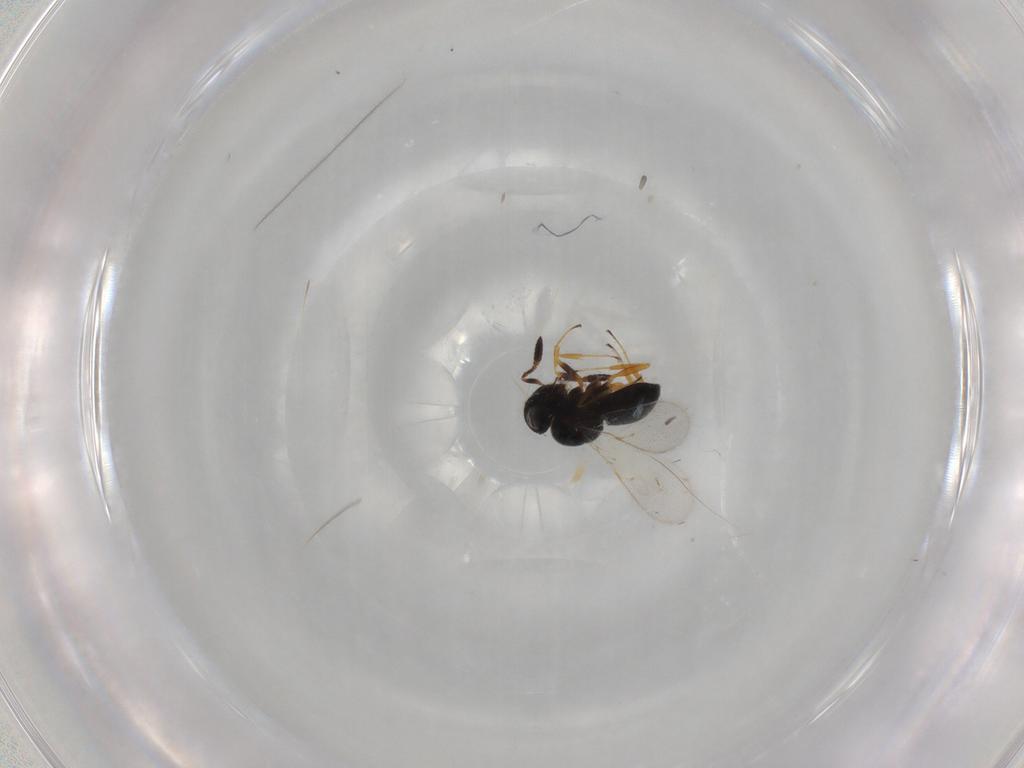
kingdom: Animalia
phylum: Arthropoda
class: Insecta
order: Hymenoptera
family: Scelionidae
